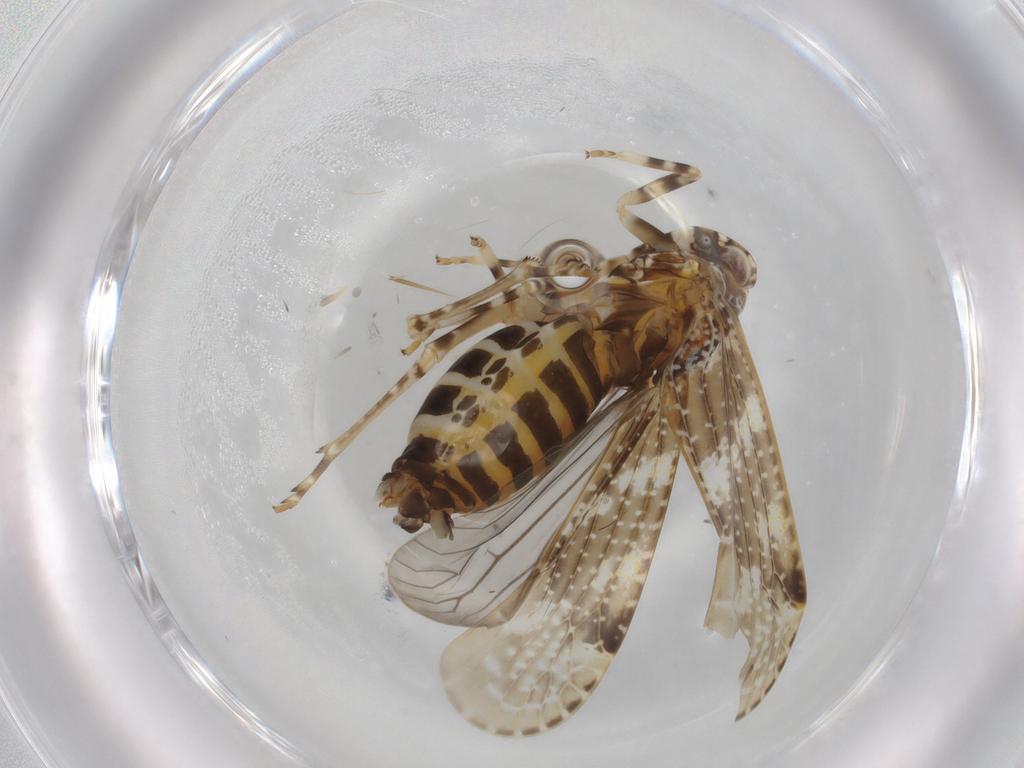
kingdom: Animalia
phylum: Arthropoda
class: Insecta
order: Hemiptera
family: Achilidae
